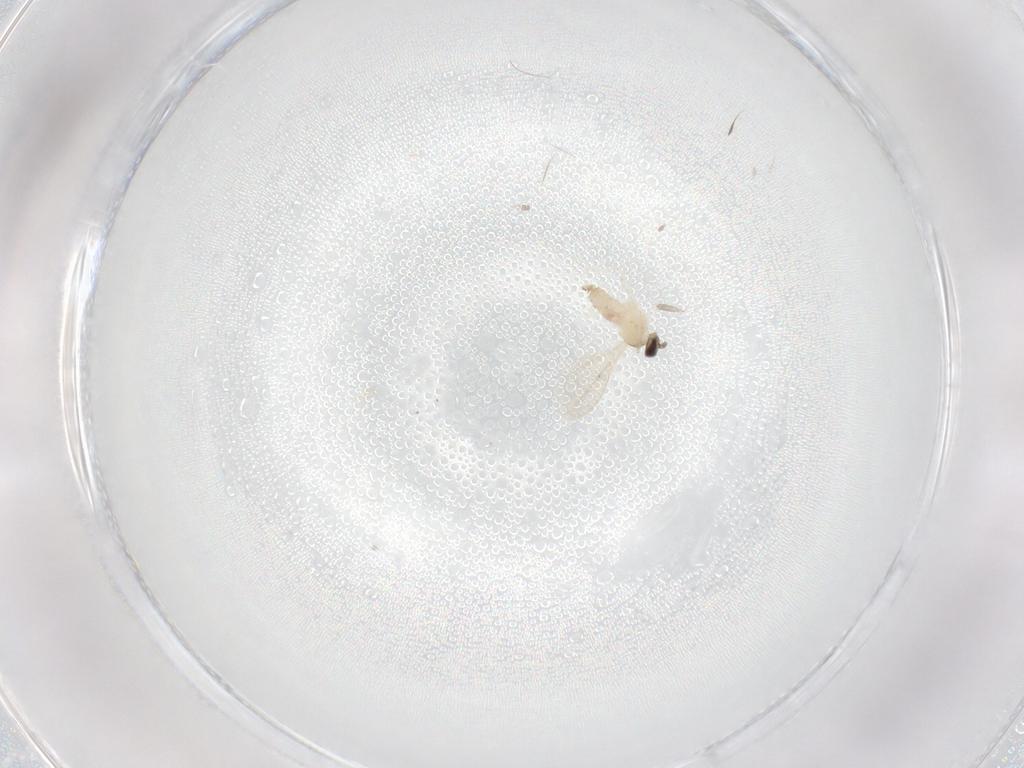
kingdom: Animalia
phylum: Arthropoda
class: Insecta
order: Diptera
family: Cecidomyiidae
